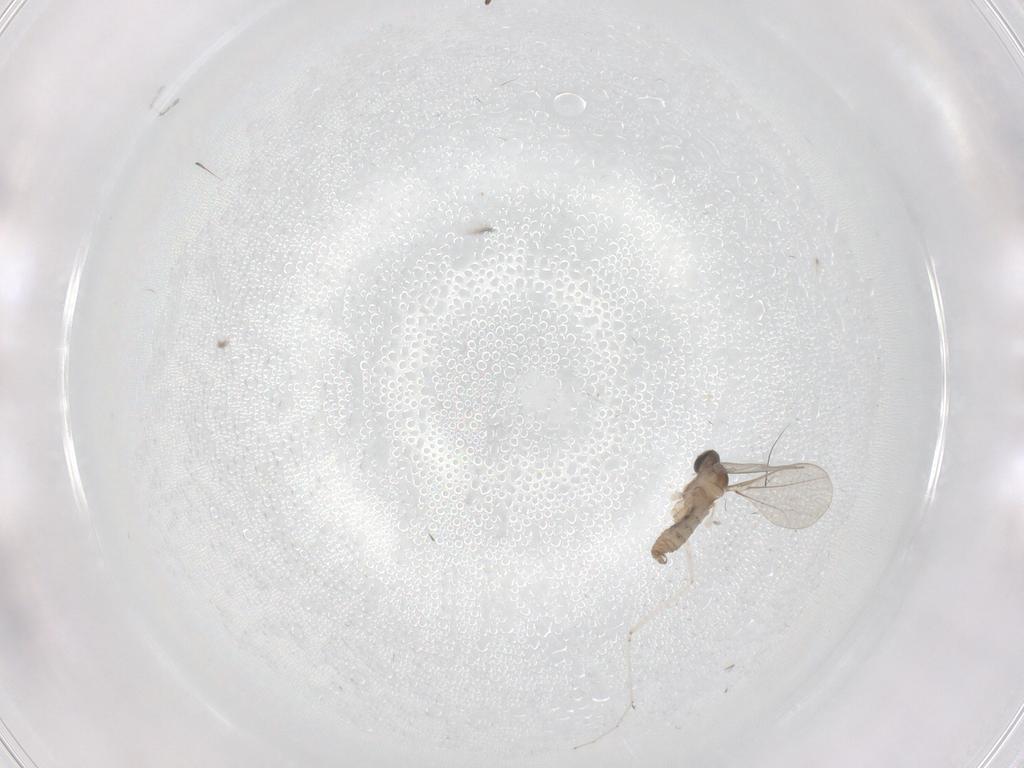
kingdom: Animalia
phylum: Arthropoda
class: Insecta
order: Diptera
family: Cecidomyiidae
